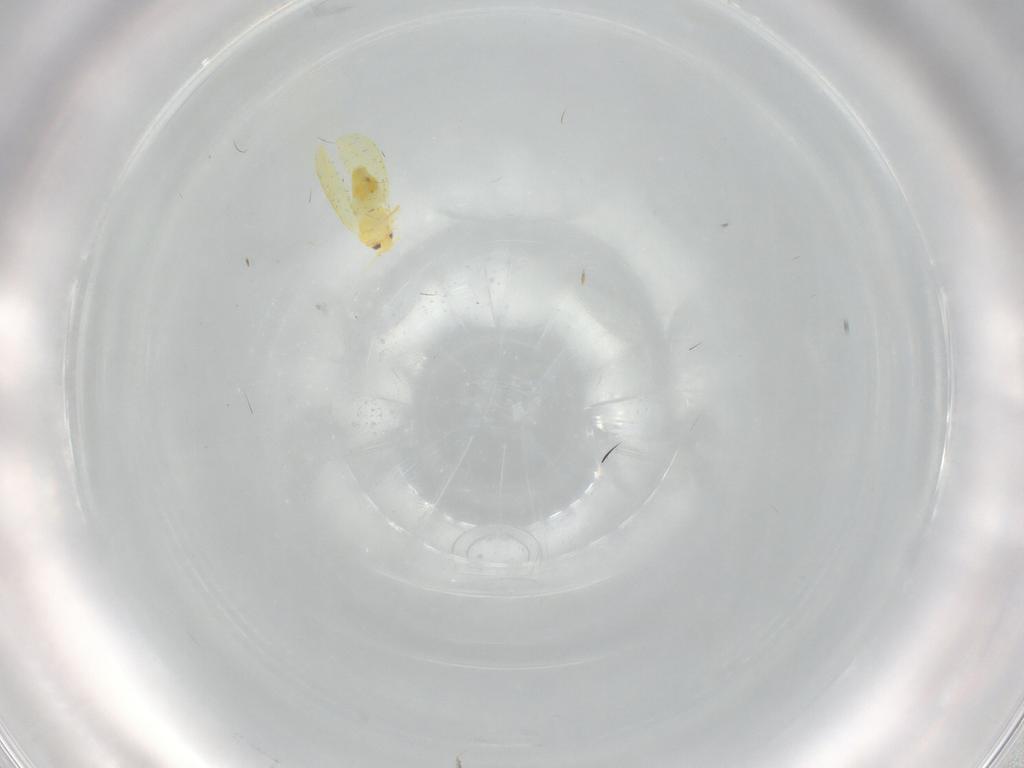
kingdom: Animalia
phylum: Arthropoda
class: Insecta
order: Hemiptera
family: Aleyrodidae
